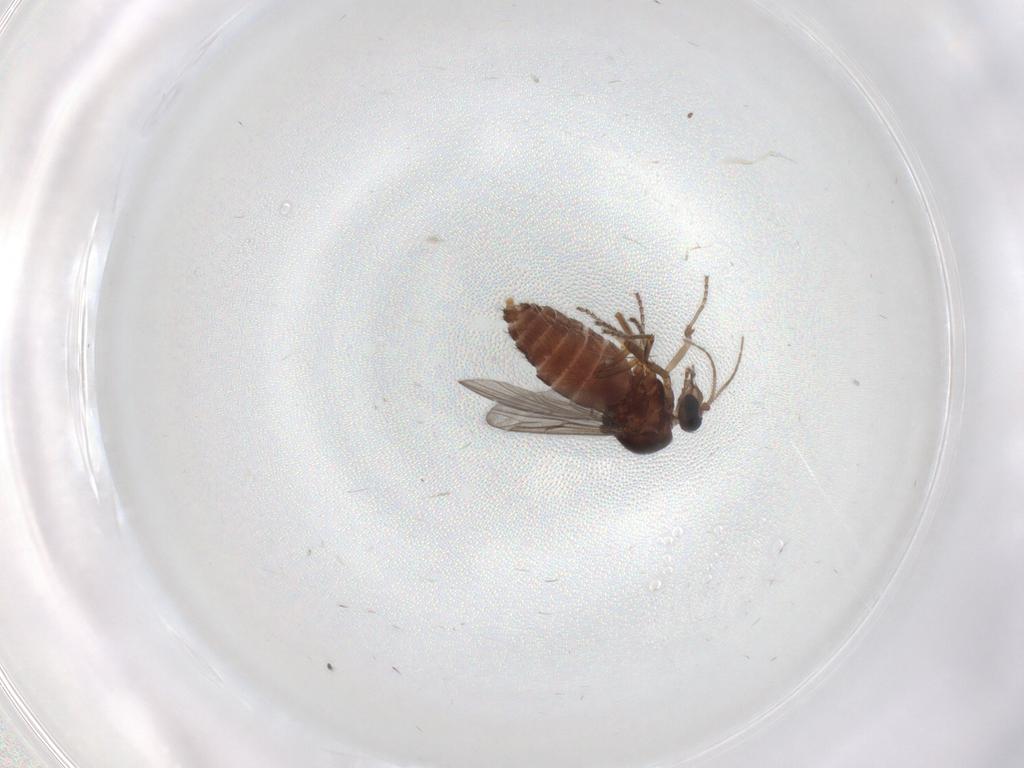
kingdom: Animalia
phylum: Arthropoda
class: Insecta
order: Diptera
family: Ceratopogonidae
